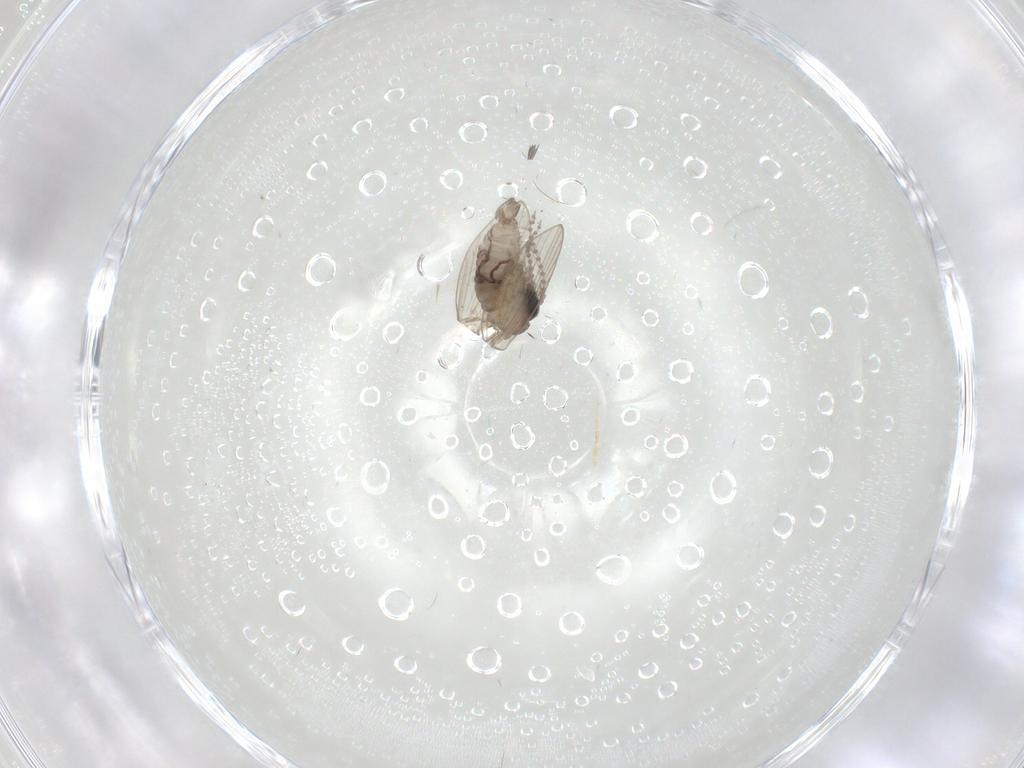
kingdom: Animalia
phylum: Arthropoda
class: Insecta
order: Diptera
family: Psychodidae
